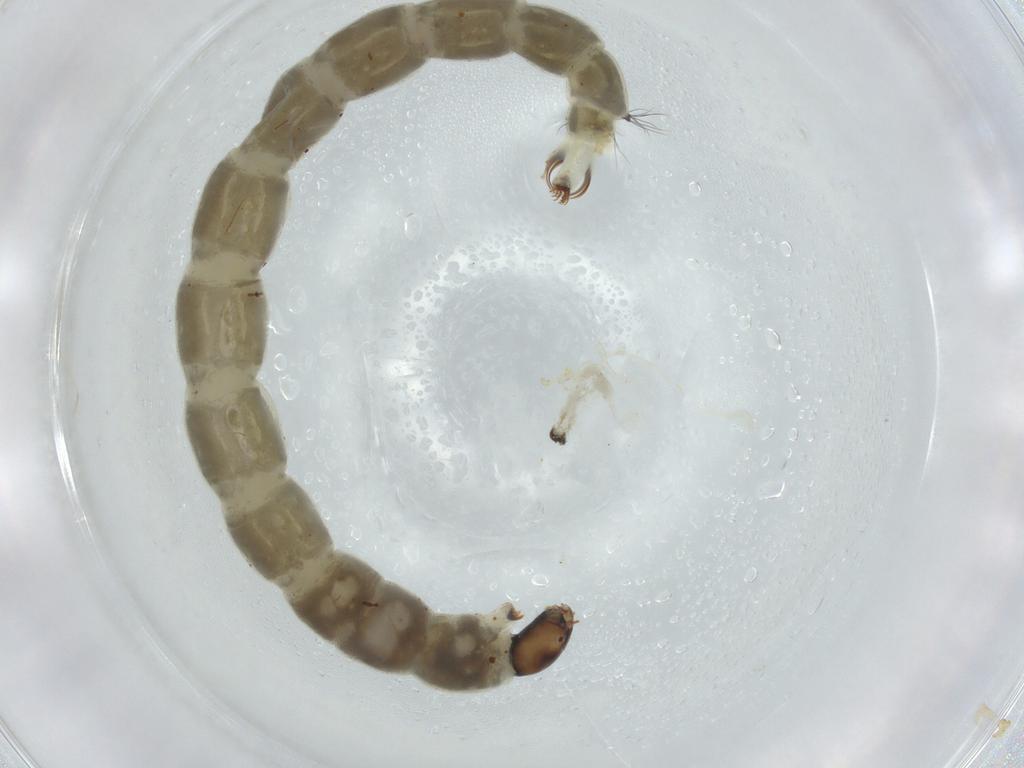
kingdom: Animalia
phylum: Arthropoda
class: Insecta
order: Diptera
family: Chironomidae
